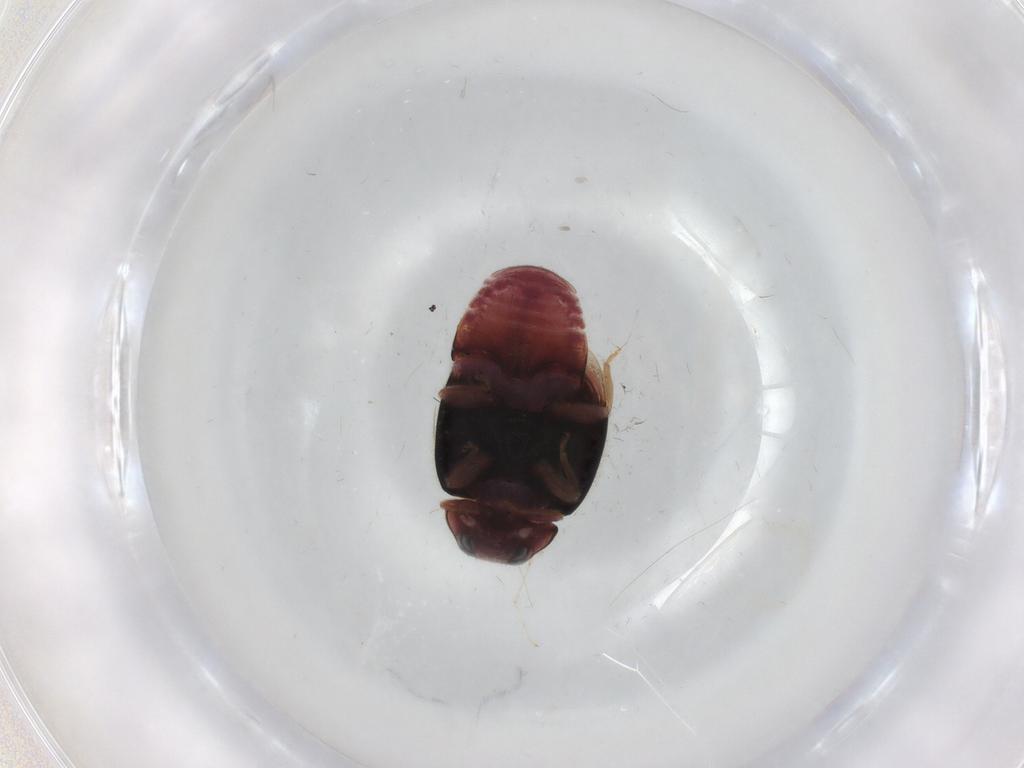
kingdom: Animalia
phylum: Arthropoda
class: Insecta
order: Coleoptera
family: Coccinellidae
